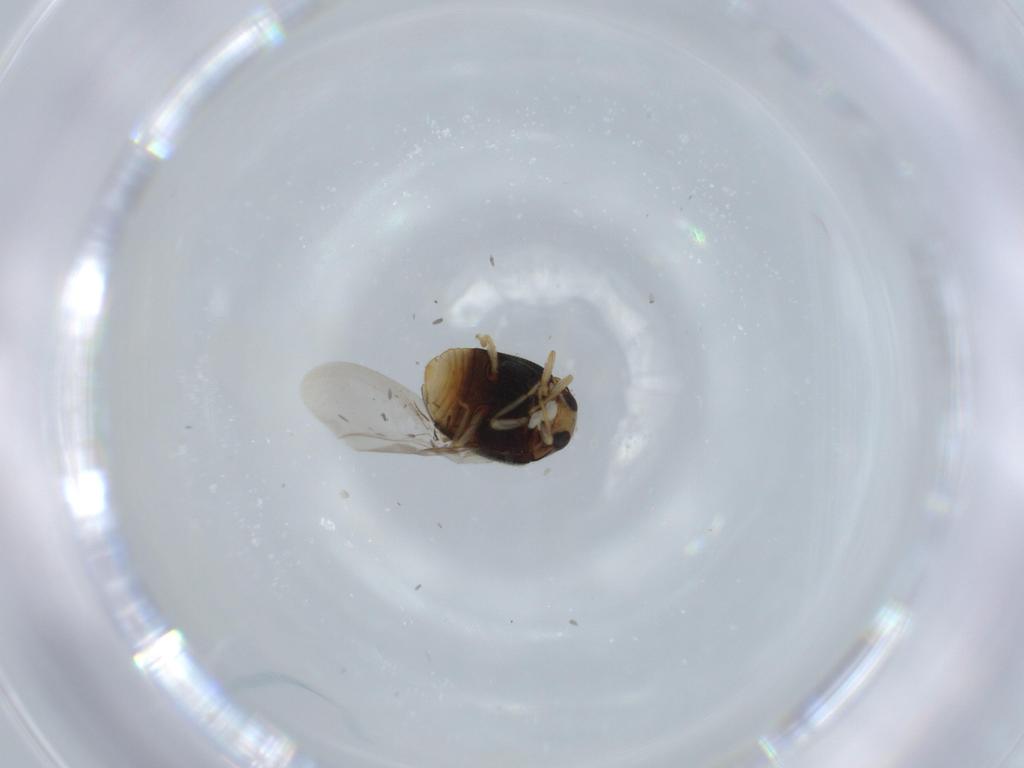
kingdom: Animalia
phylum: Arthropoda
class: Insecta
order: Coleoptera
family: Coccinellidae
